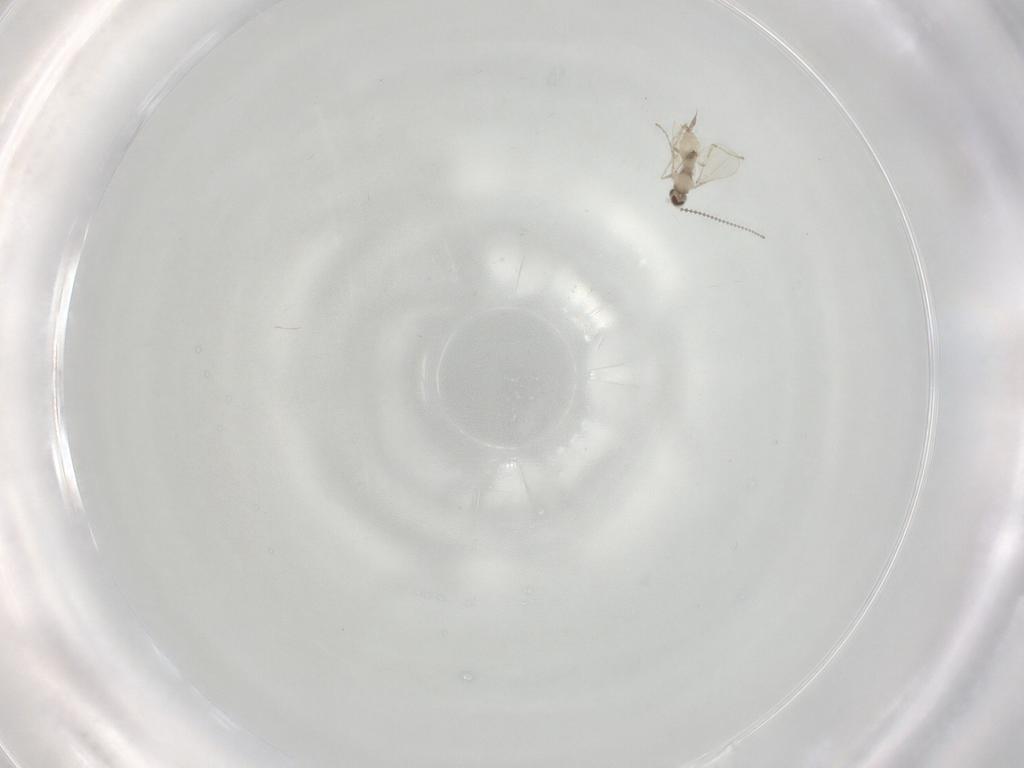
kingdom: Animalia
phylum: Arthropoda
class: Insecta
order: Diptera
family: Cecidomyiidae
